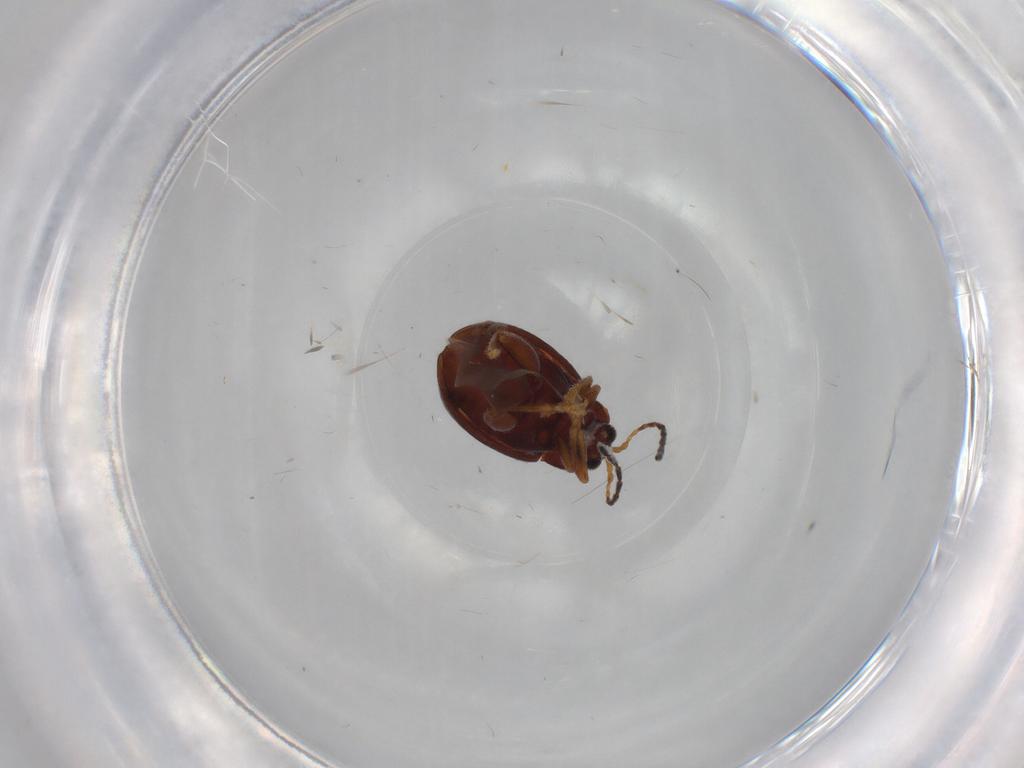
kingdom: Animalia
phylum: Arthropoda
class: Insecta
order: Coleoptera
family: Chrysomelidae
